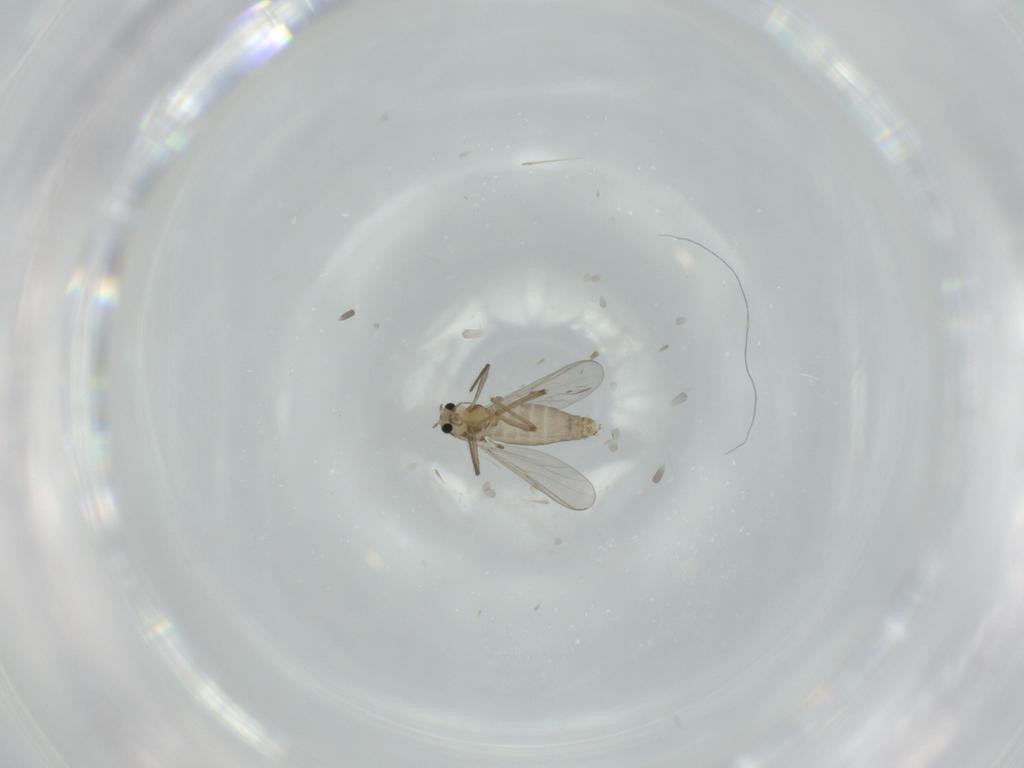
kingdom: Animalia
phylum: Arthropoda
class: Insecta
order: Diptera
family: Chironomidae
